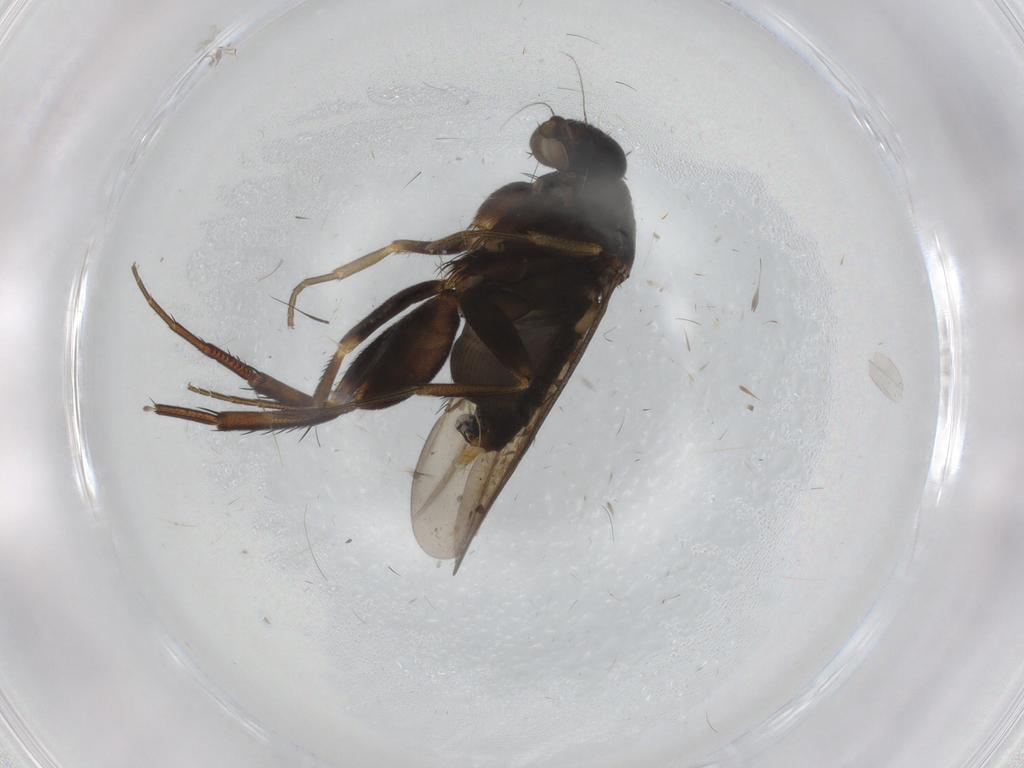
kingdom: Animalia
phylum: Arthropoda
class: Insecta
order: Diptera
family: Phoridae
